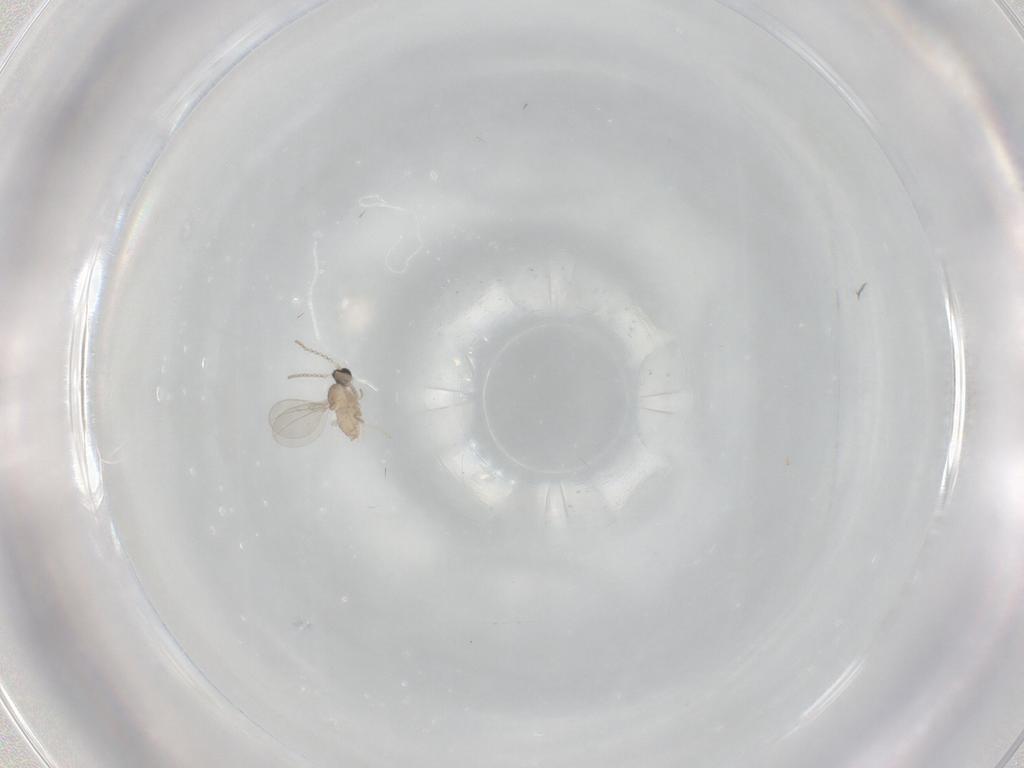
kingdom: Animalia
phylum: Arthropoda
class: Insecta
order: Diptera
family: Cecidomyiidae
